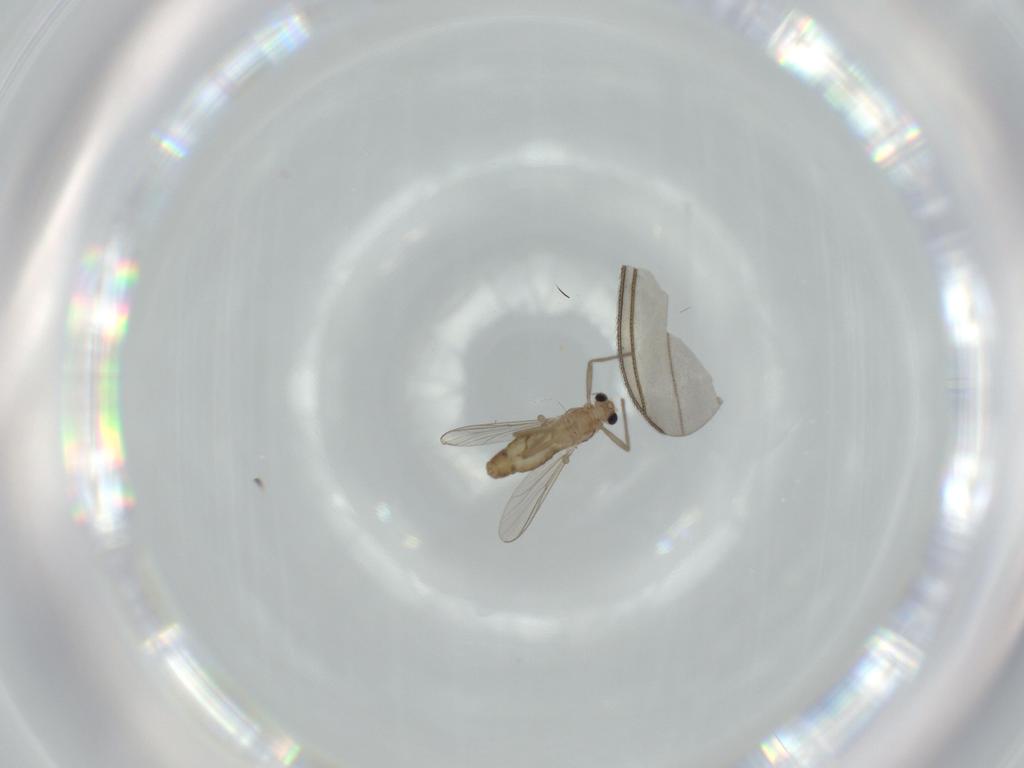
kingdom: Animalia
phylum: Arthropoda
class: Insecta
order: Diptera
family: Chironomidae
